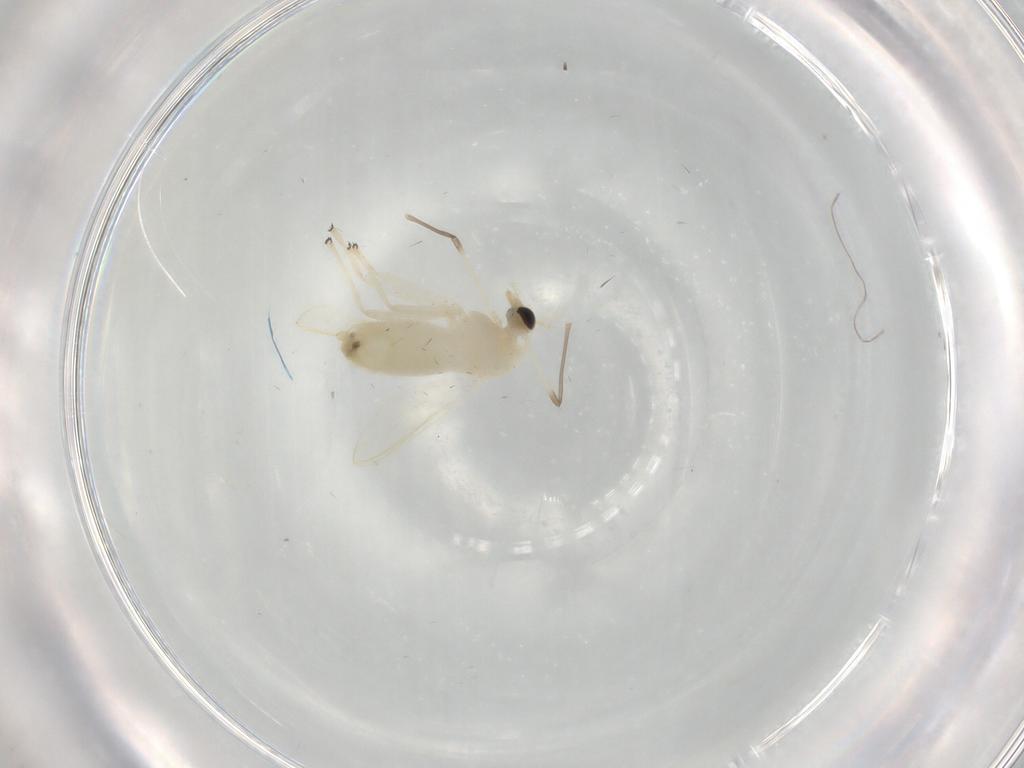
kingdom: Animalia
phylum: Arthropoda
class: Insecta
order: Diptera
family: Chironomidae
